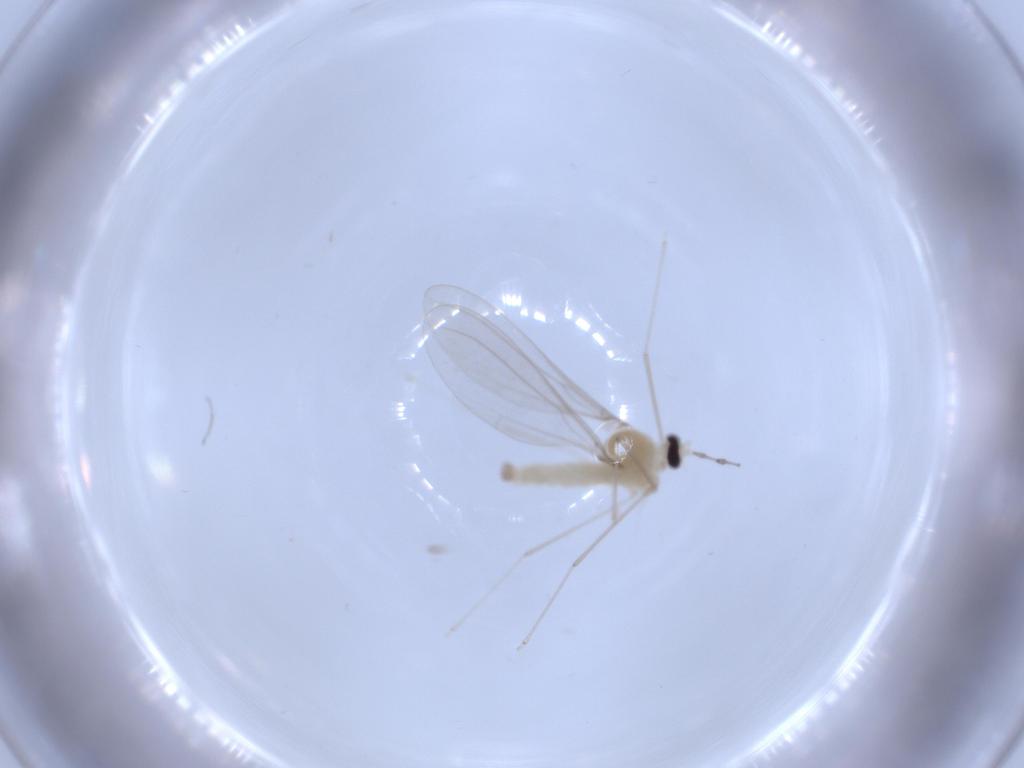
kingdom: Animalia
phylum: Arthropoda
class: Insecta
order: Diptera
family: Cecidomyiidae
